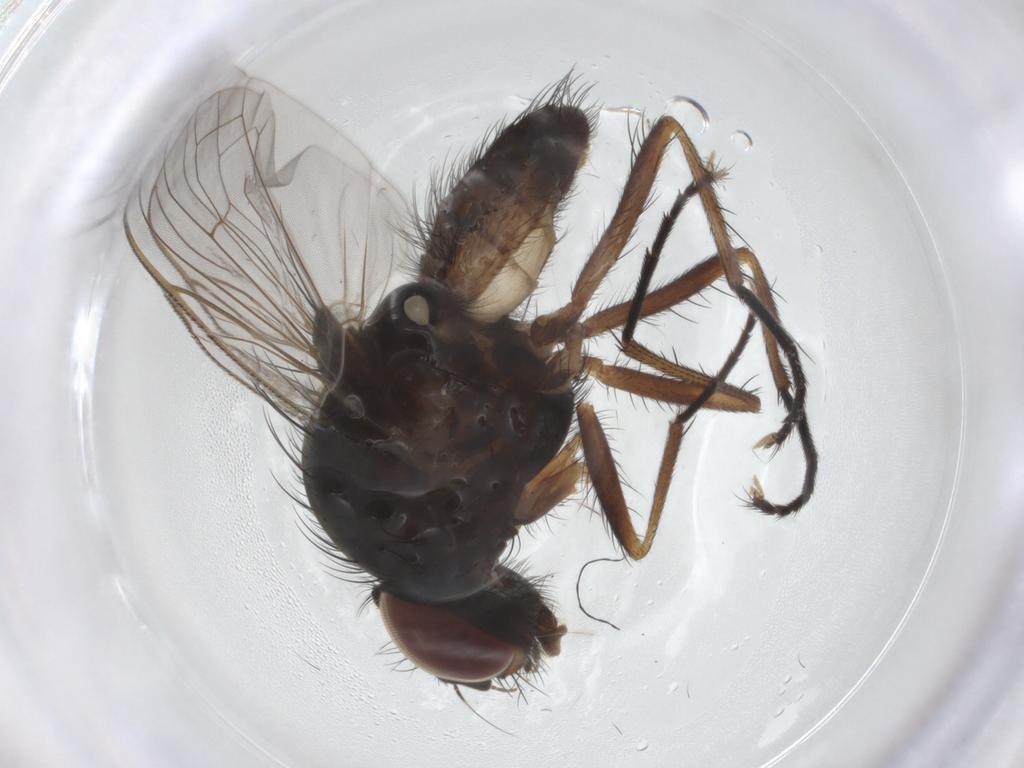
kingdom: Animalia
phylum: Arthropoda
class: Insecta
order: Diptera
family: Anthomyiidae
